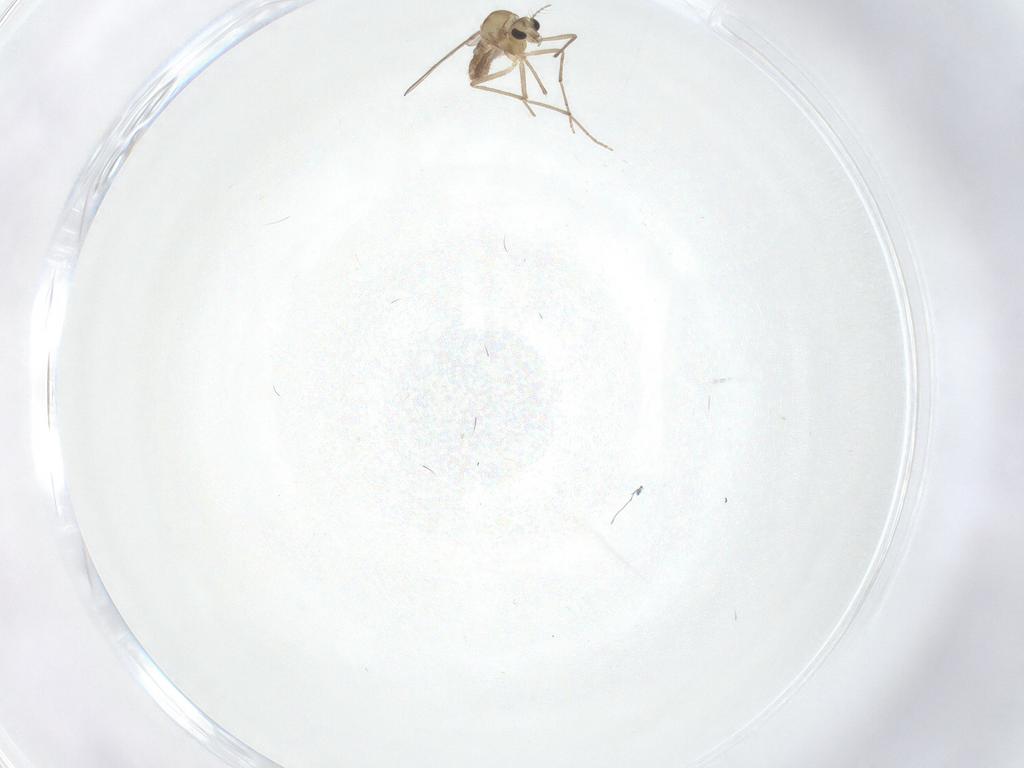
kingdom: Animalia
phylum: Arthropoda
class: Insecta
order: Diptera
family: Chironomidae
